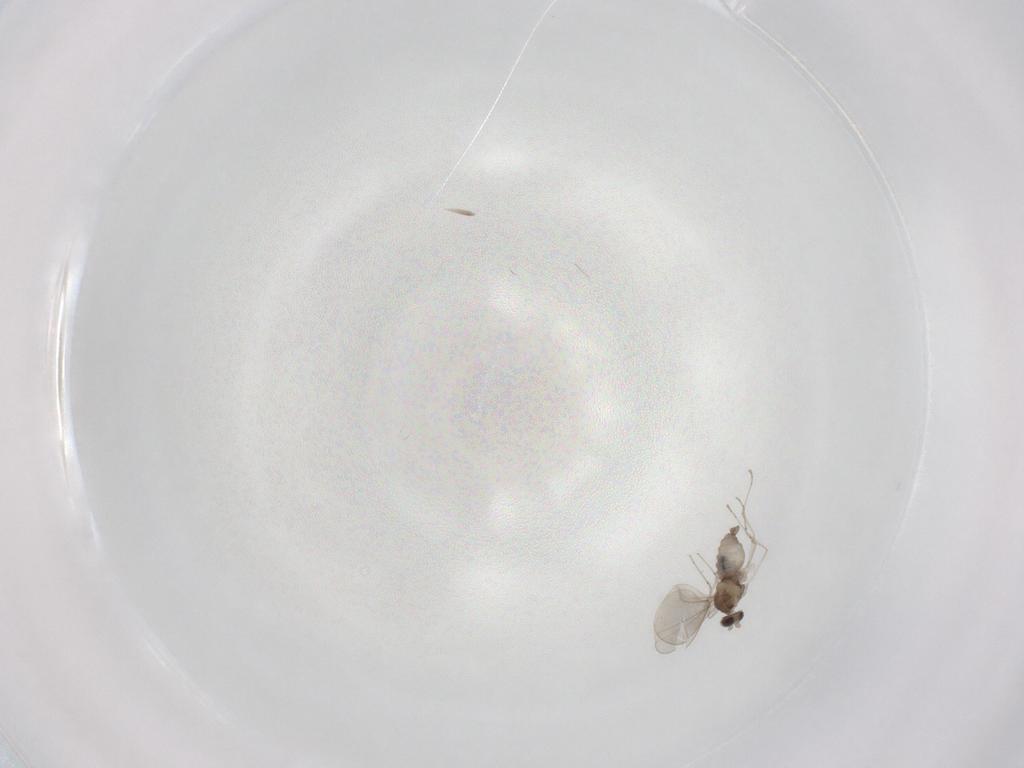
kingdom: Animalia
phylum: Arthropoda
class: Insecta
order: Diptera
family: Cecidomyiidae
